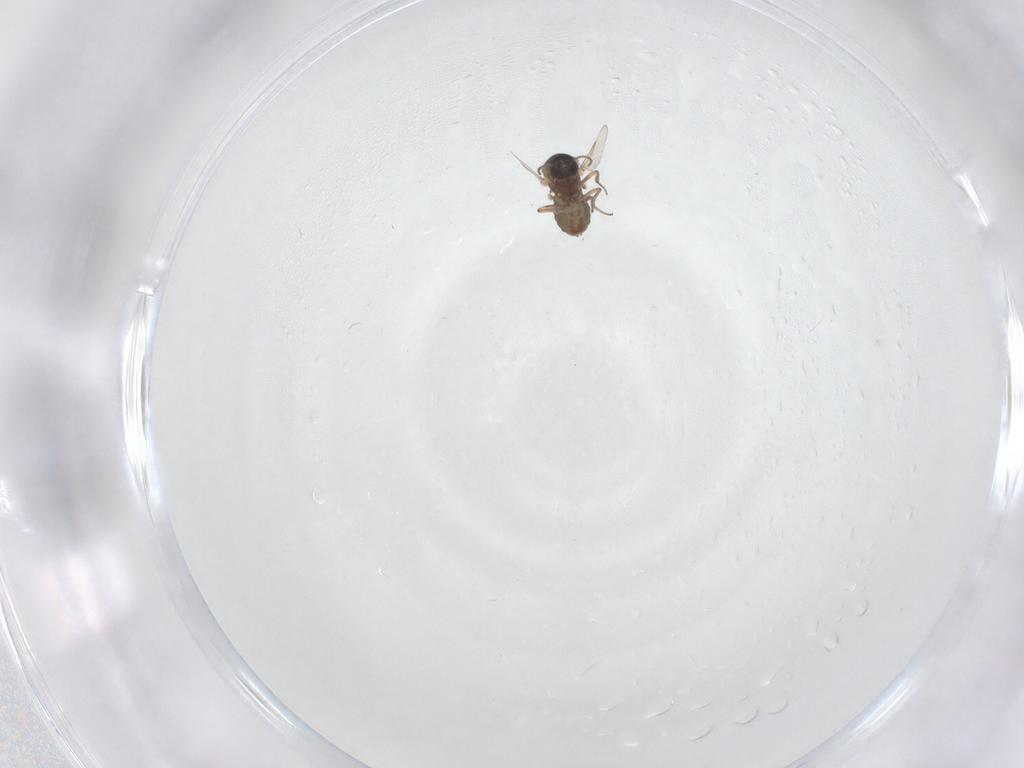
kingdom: Animalia
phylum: Arthropoda
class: Insecta
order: Diptera
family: Ceratopogonidae
